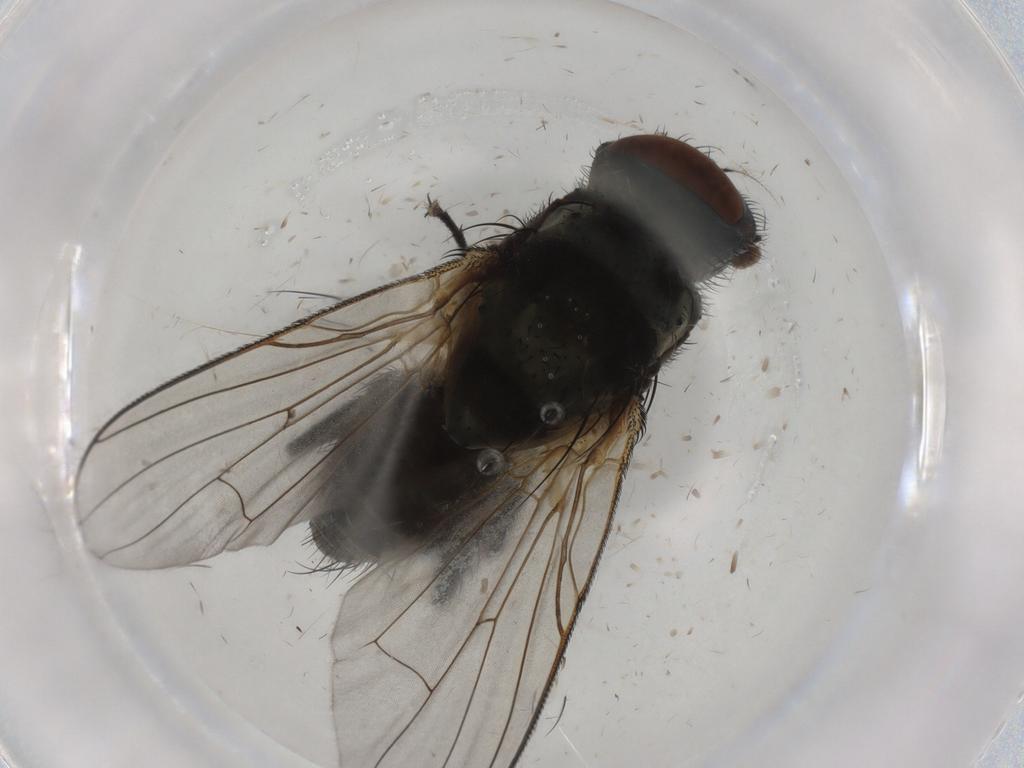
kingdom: Animalia
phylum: Arthropoda
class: Insecta
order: Diptera
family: Muscidae
